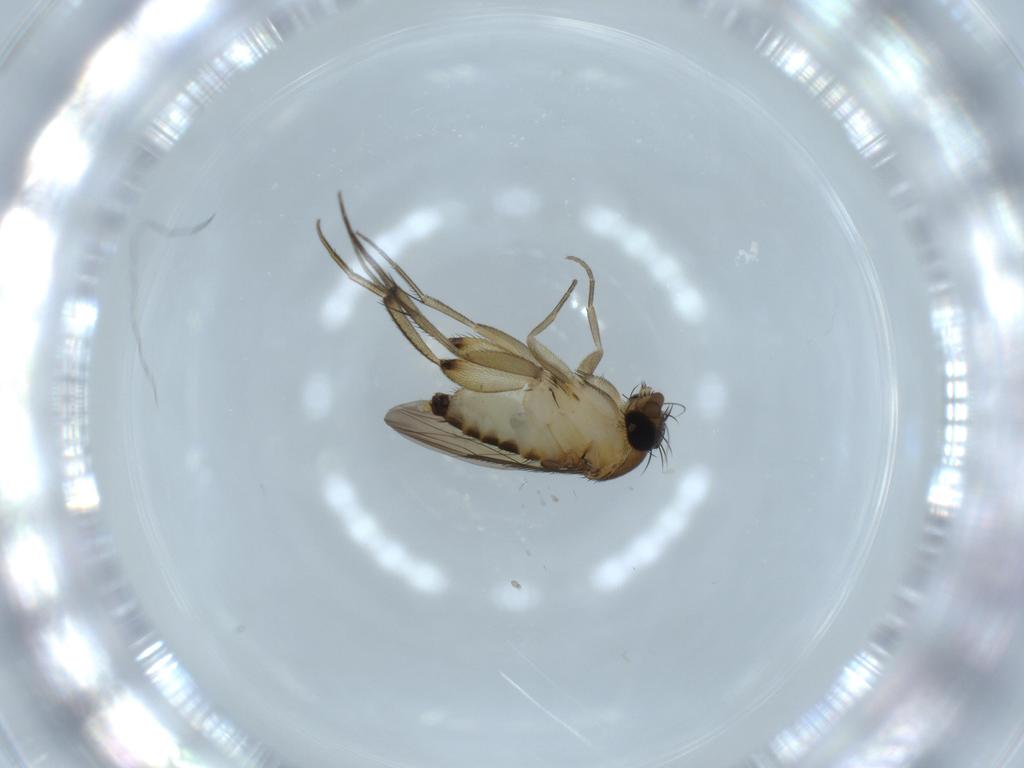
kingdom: Animalia
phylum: Arthropoda
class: Insecta
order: Diptera
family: Phoridae
